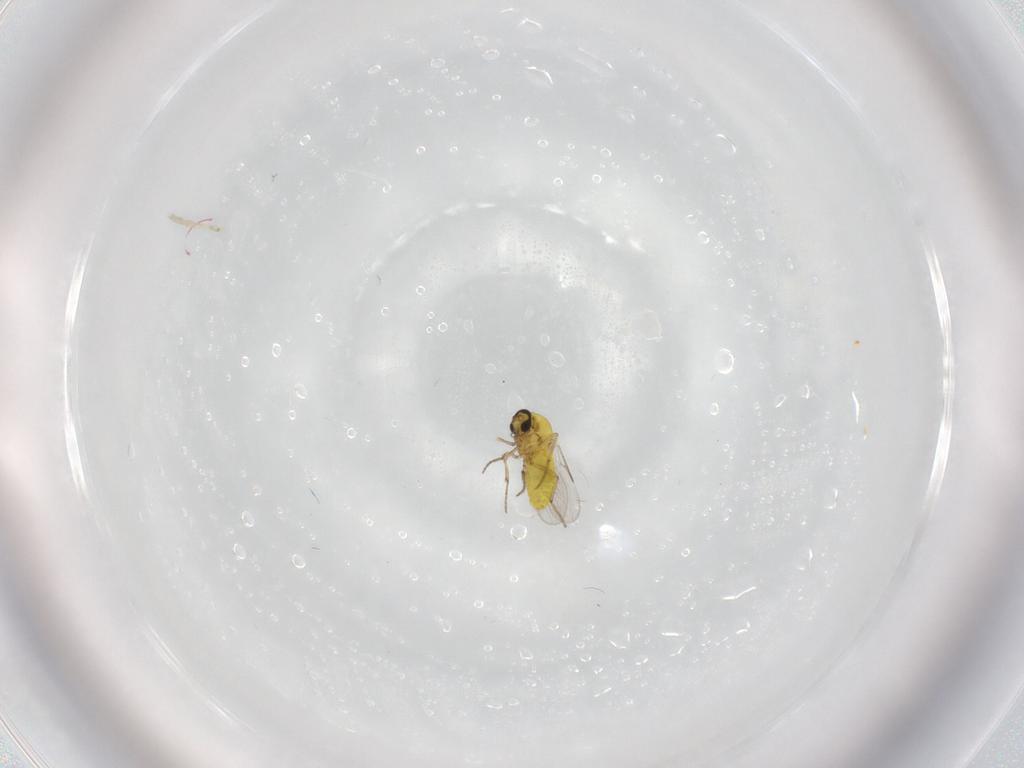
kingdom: Animalia
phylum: Arthropoda
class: Insecta
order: Diptera
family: Ceratopogonidae
